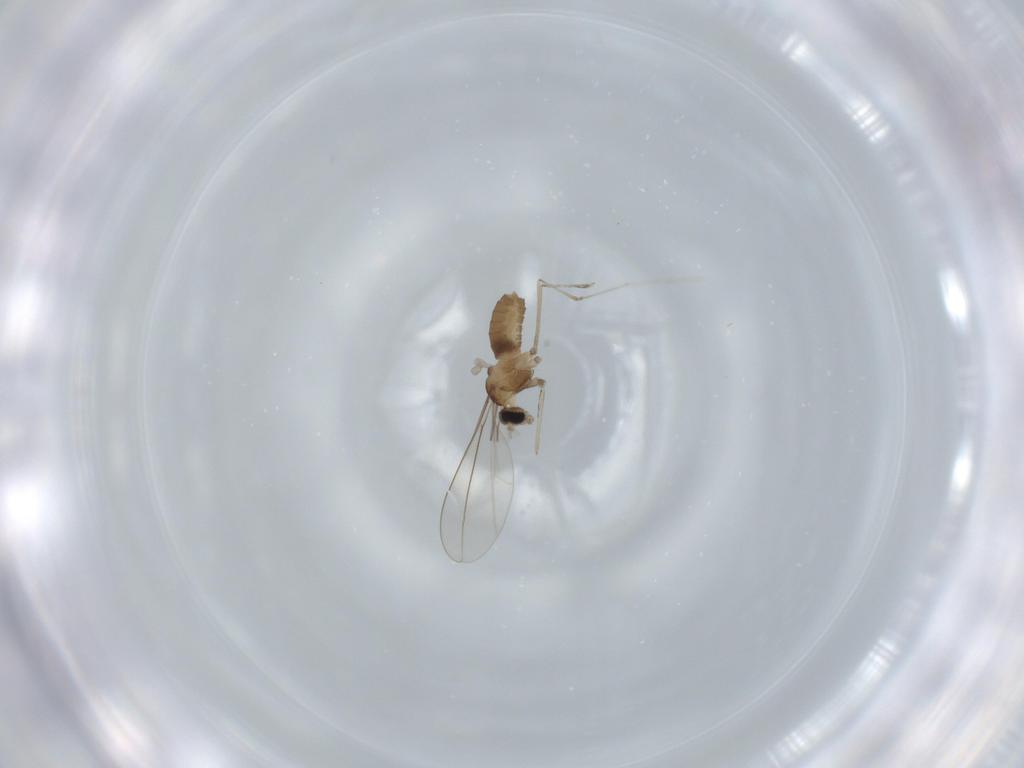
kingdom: Animalia
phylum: Arthropoda
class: Insecta
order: Diptera
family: Cecidomyiidae
